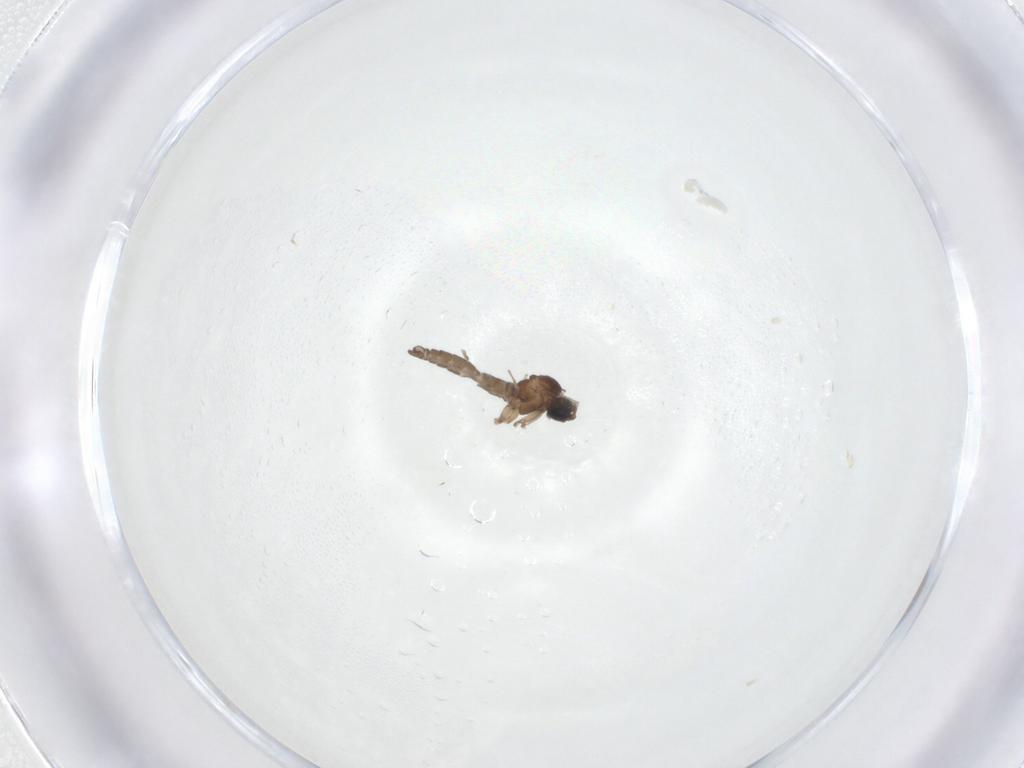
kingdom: Animalia
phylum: Arthropoda
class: Insecta
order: Diptera
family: Sciaridae
